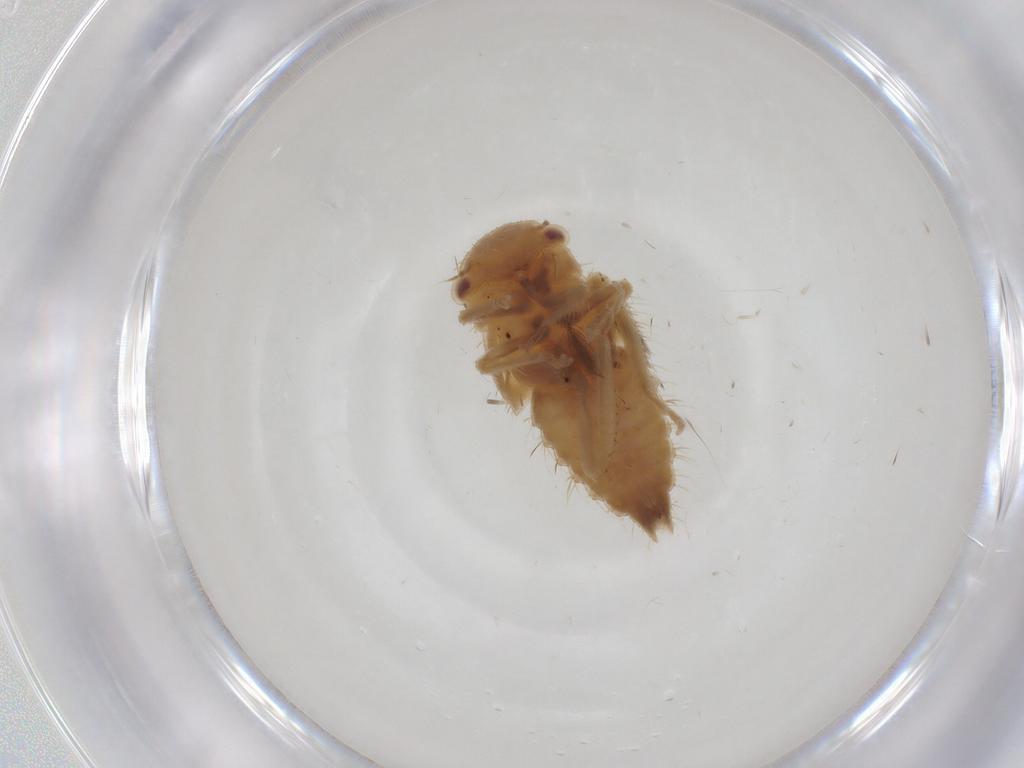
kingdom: Animalia
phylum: Arthropoda
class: Insecta
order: Hemiptera
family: Cicadellidae
